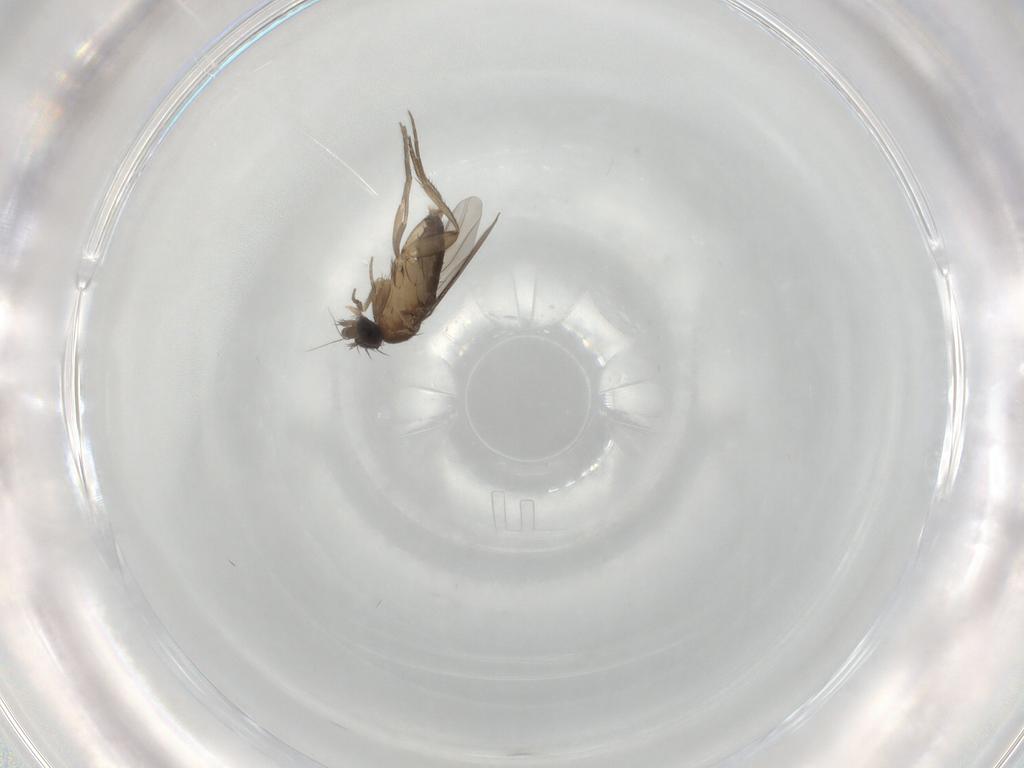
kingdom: Animalia
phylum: Arthropoda
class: Insecta
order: Diptera
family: Phoridae
